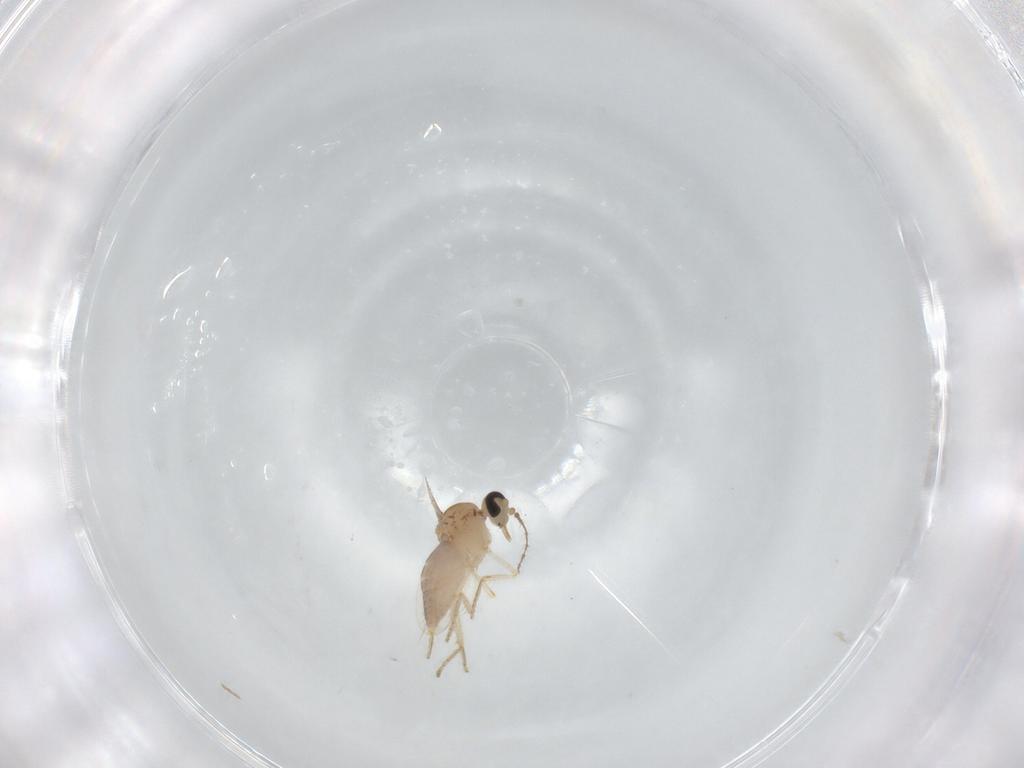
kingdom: Animalia
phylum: Arthropoda
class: Insecta
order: Diptera
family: Ceratopogonidae
